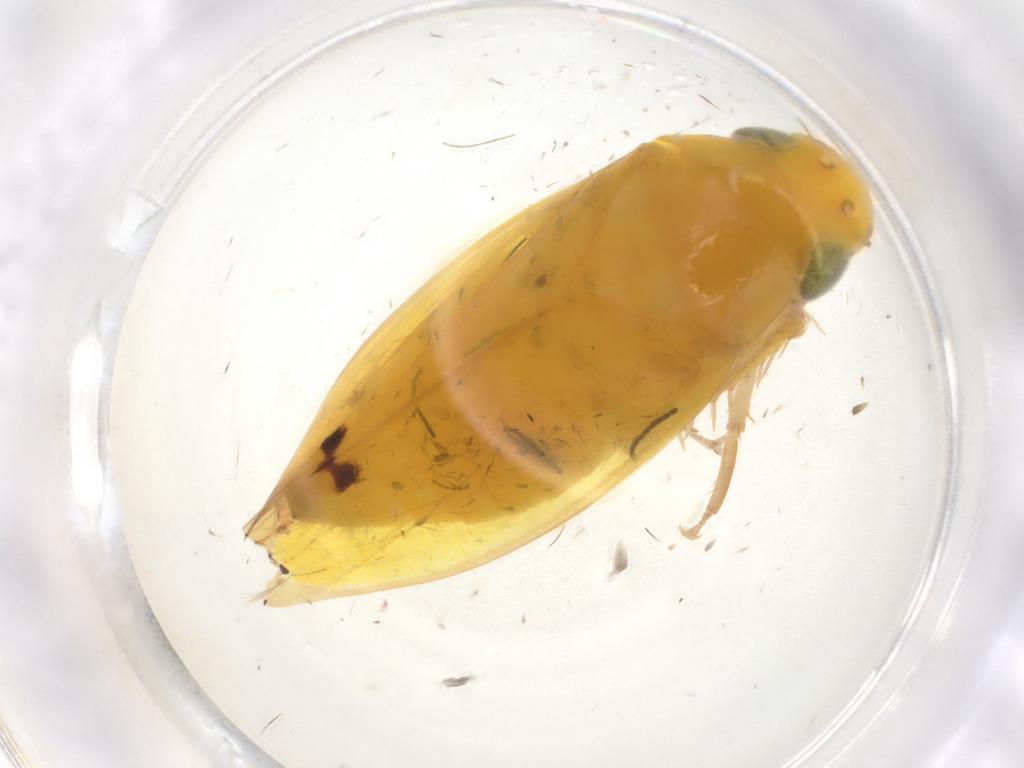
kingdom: Animalia
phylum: Arthropoda
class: Insecta
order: Hemiptera
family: Cicadellidae
